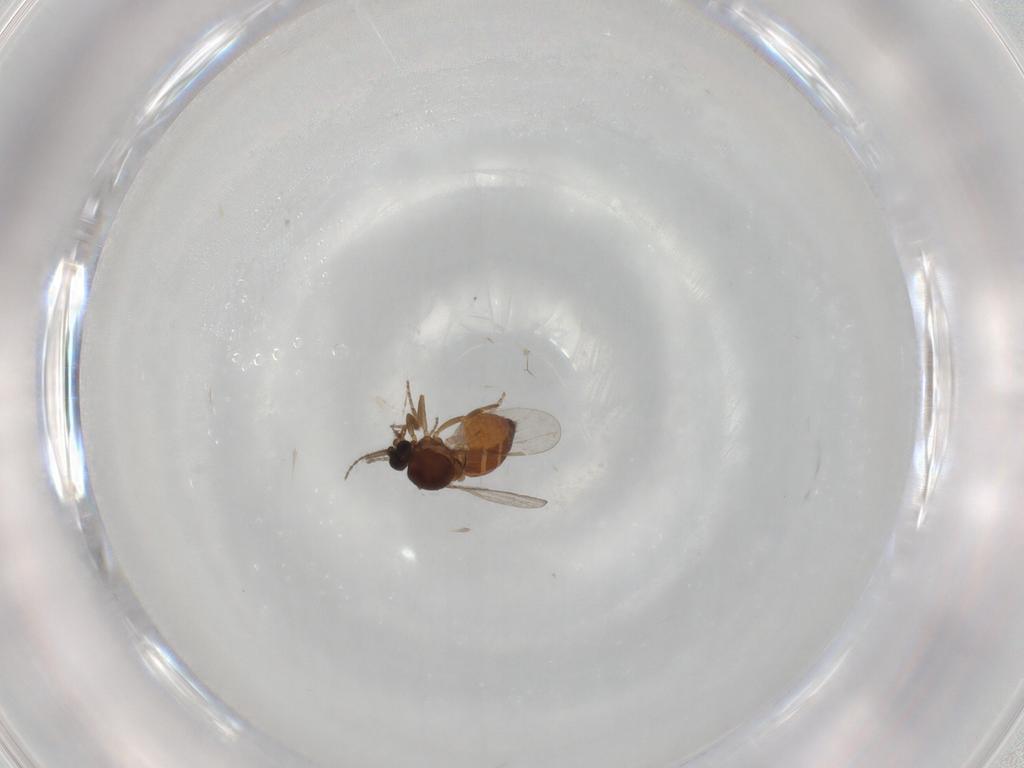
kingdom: Animalia
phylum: Arthropoda
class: Insecta
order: Diptera
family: Ceratopogonidae
